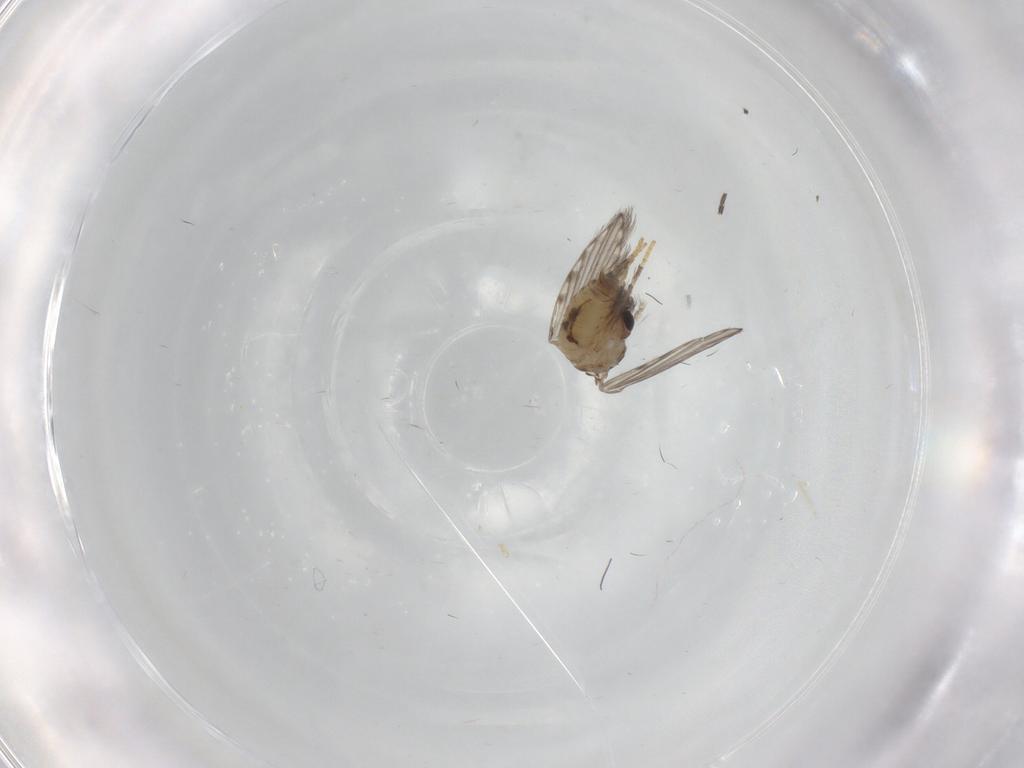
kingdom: Animalia
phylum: Arthropoda
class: Insecta
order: Diptera
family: Psychodidae
